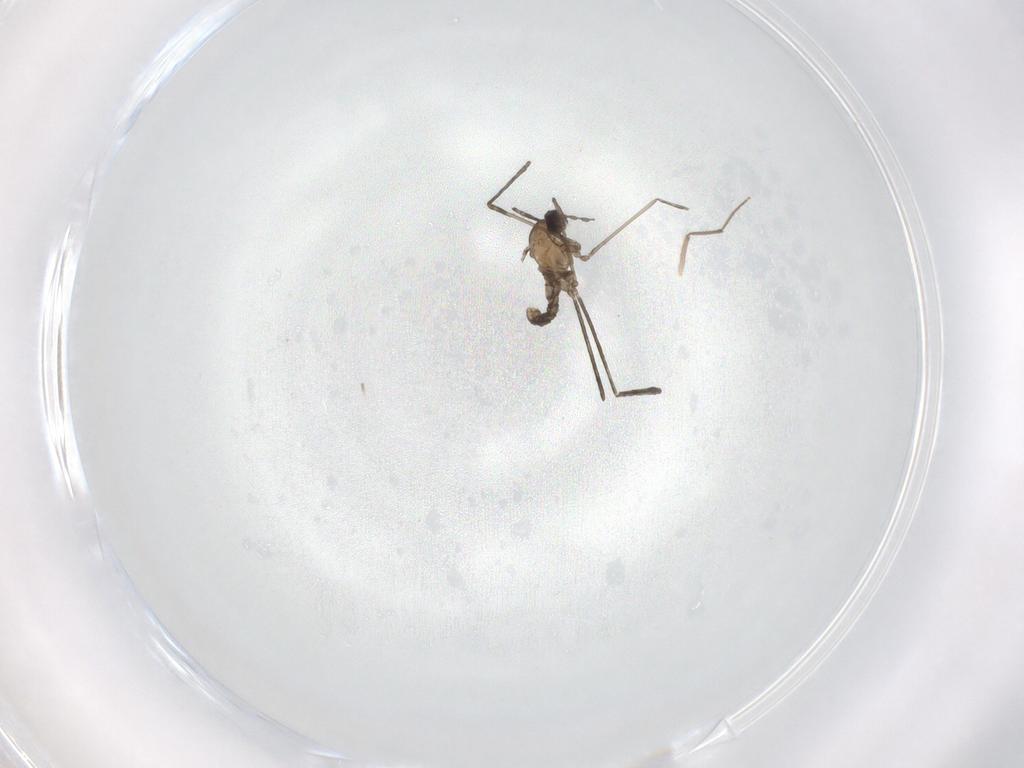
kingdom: Animalia
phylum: Arthropoda
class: Insecta
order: Diptera
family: Cecidomyiidae
